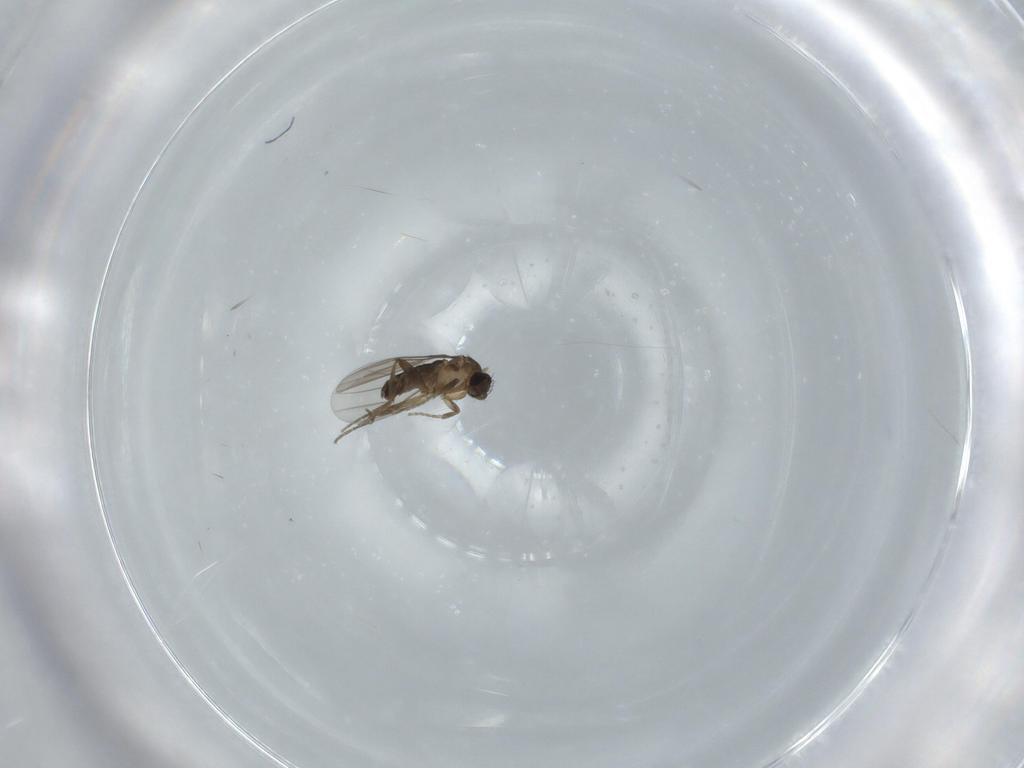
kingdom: Animalia
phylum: Arthropoda
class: Insecta
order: Diptera
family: Phoridae
